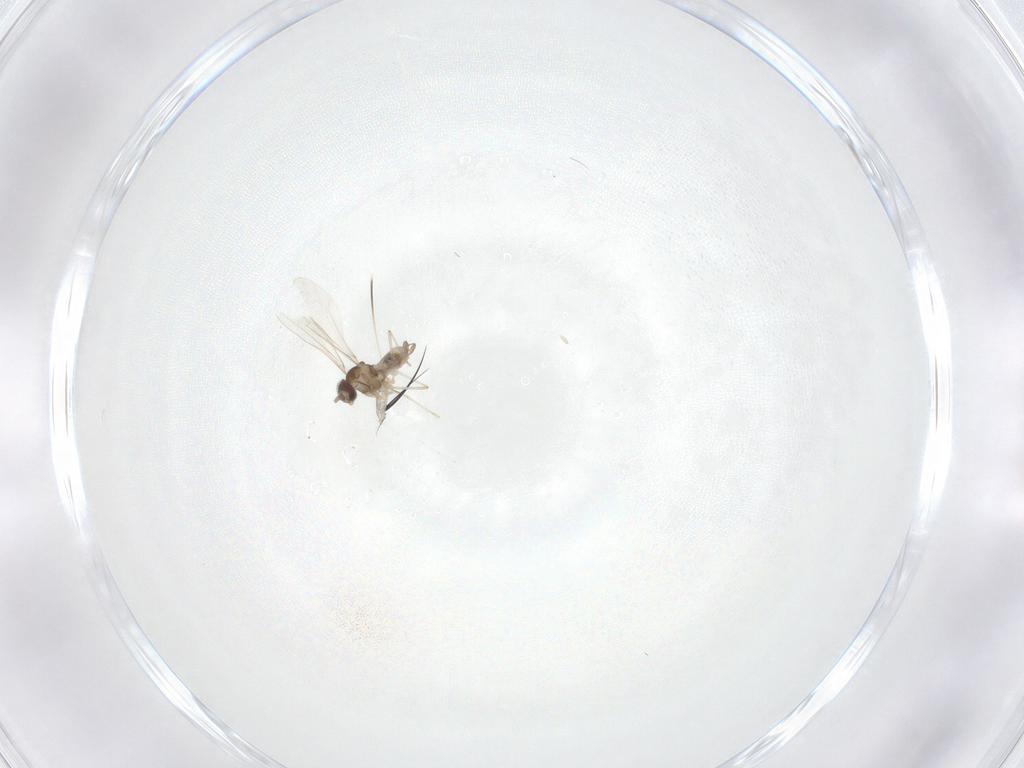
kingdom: Animalia
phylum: Arthropoda
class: Insecta
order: Diptera
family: Cecidomyiidae
